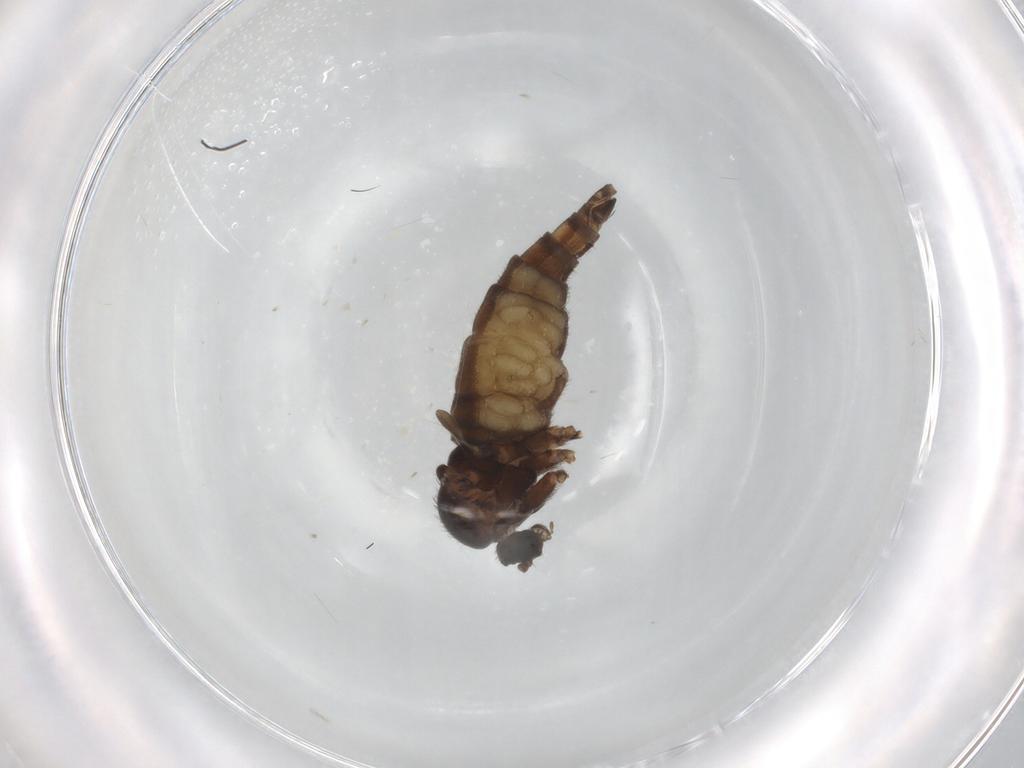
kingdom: Animalia
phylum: Arthropoda
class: Insecta
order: Diptera
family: Sciaridae
